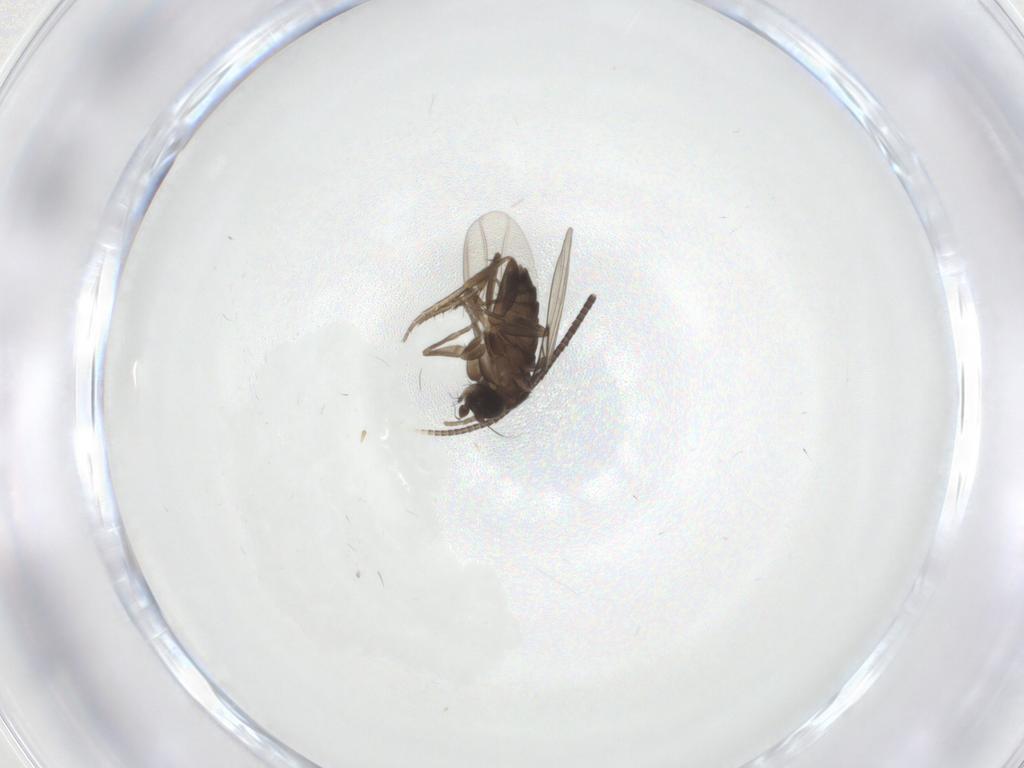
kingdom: Animalia
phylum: Arthropoda
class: Insecta
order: Diptera
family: Phoridae
